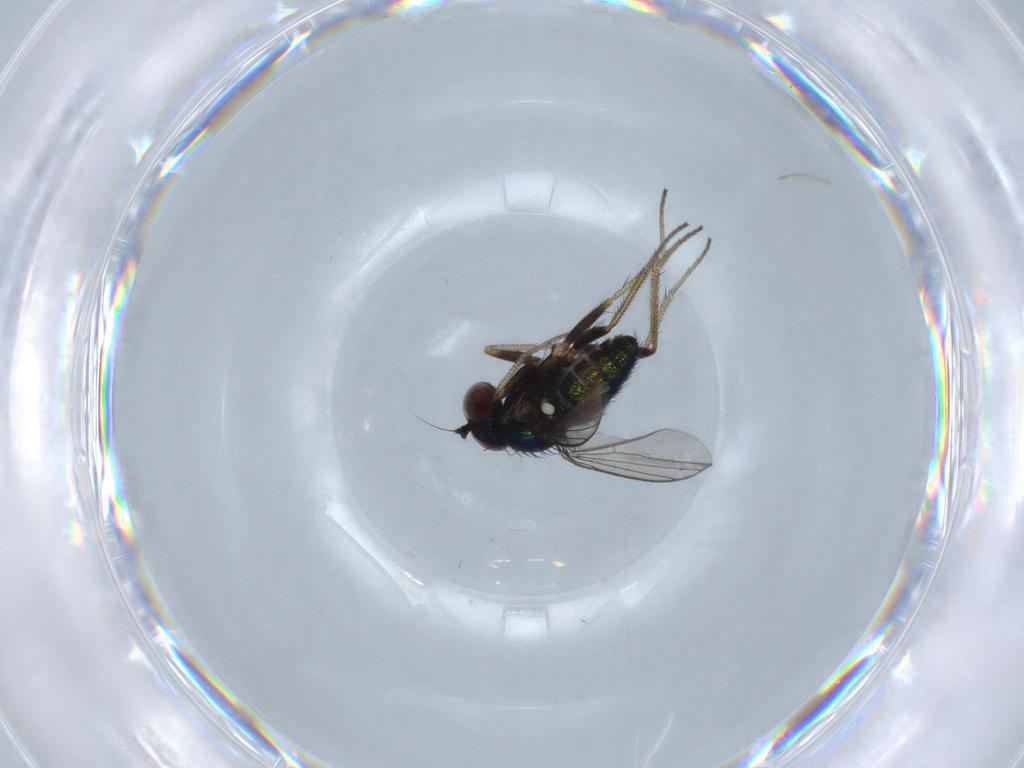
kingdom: Animalia
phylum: Arthropoda
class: Insecta
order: Diptera
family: Dolichopodidae
